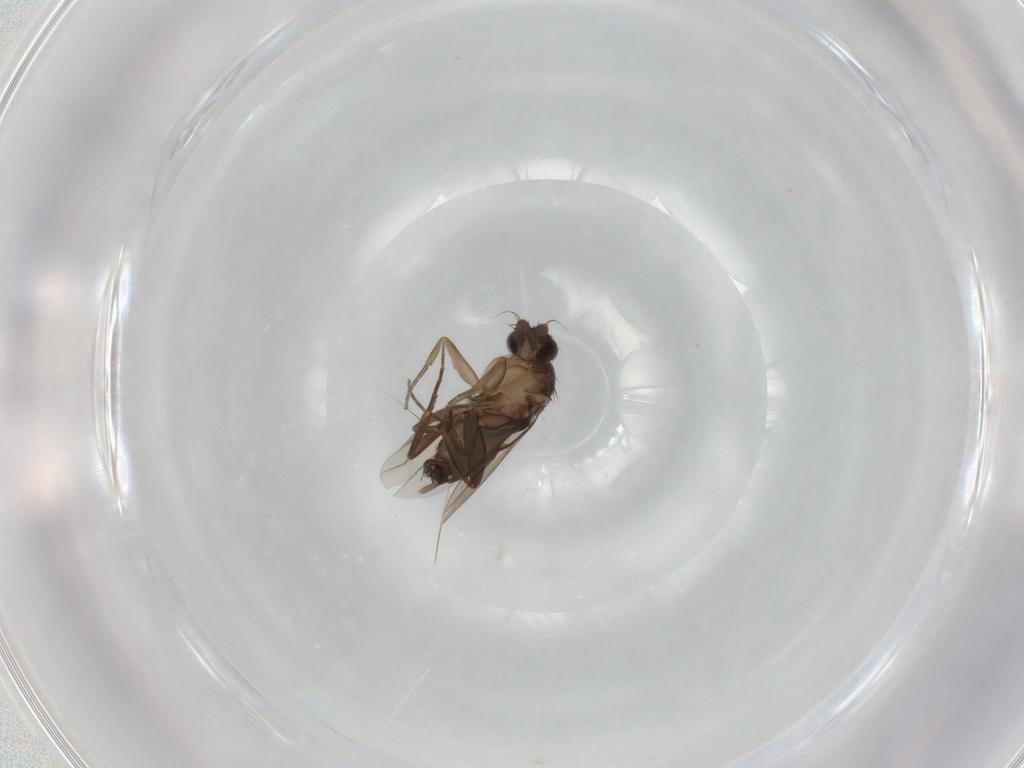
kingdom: Animalia
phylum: Arthropoda
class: Insecta
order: Diptera
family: Phoridae
